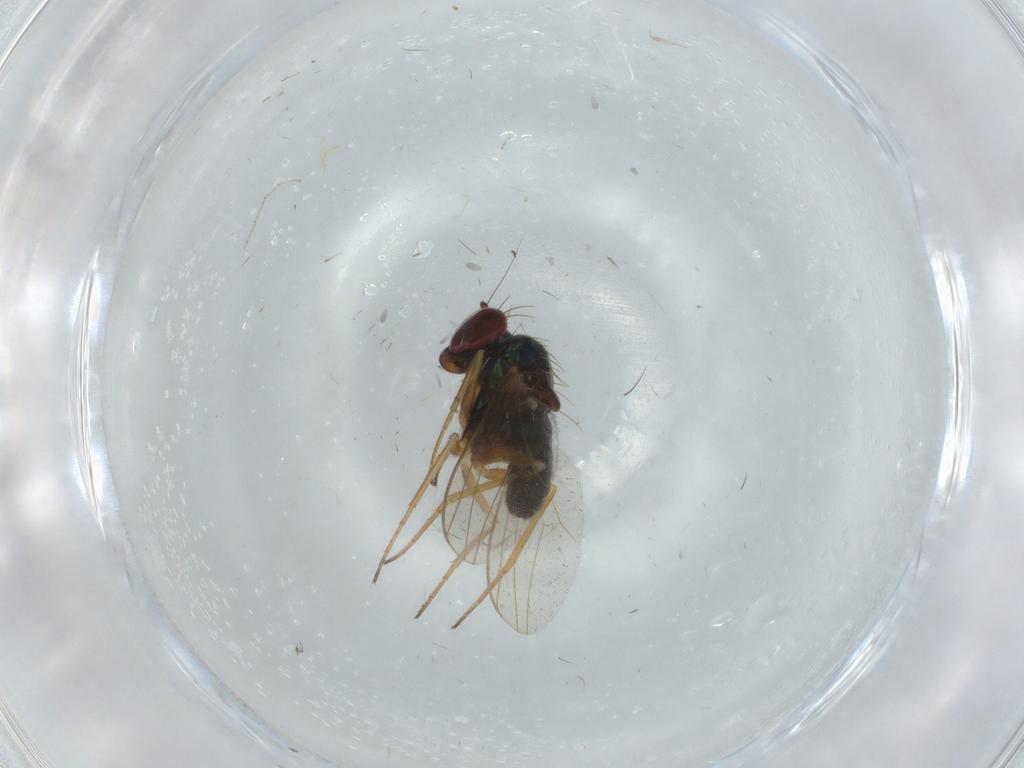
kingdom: Animalia
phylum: Arthropoda
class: Insecta
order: Diptera
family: Cecidomyiidae
